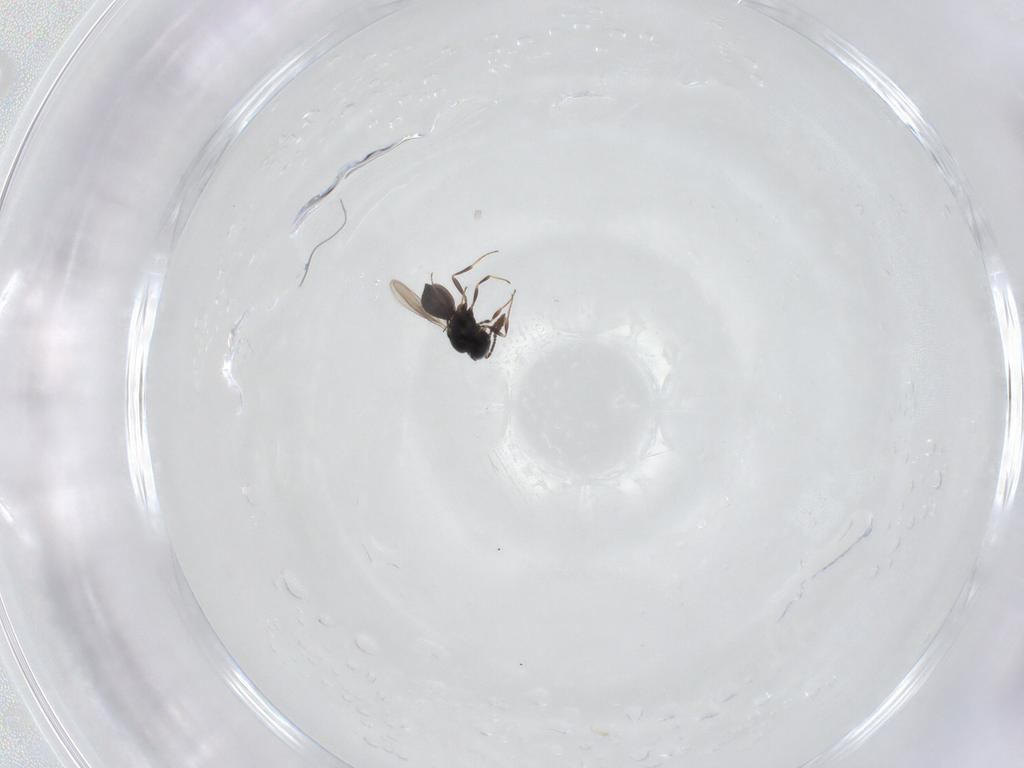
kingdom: Animalia
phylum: Arthropoda
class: Insecta
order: Hymenoptera
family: Scelionidae
